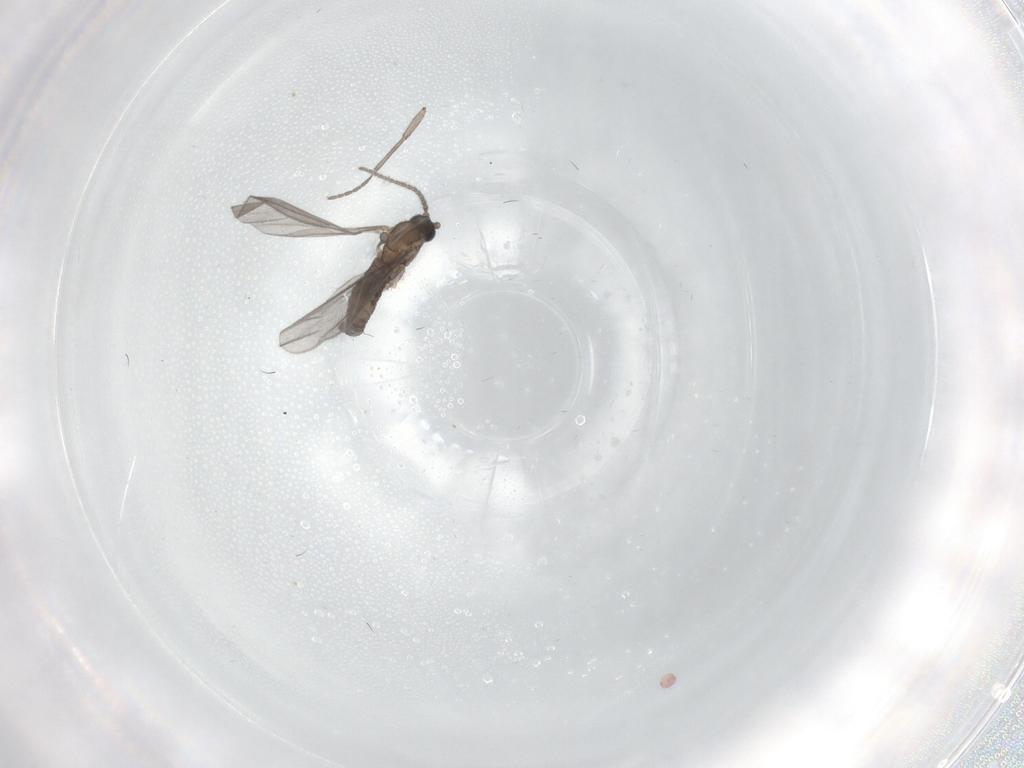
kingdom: Animalia
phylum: Arthropoda
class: Insecta
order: Diptera
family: Sciaridae
